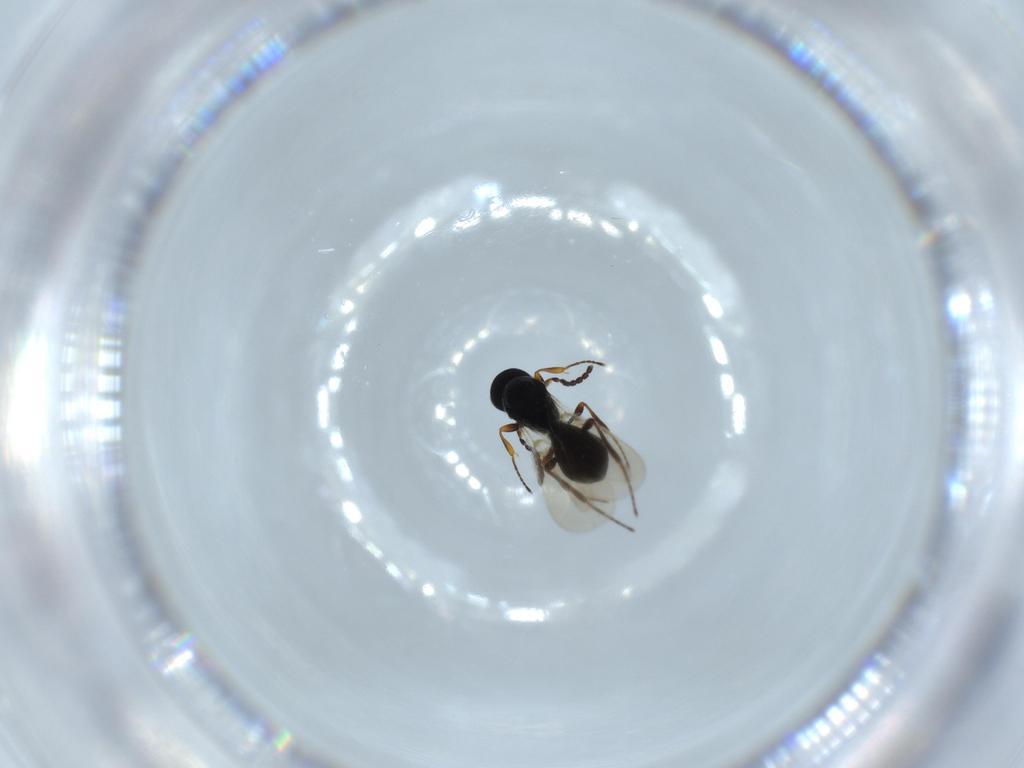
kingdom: Animalia
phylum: Arthropoda
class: Insecta
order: Hymenoptera
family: Platygastridae
